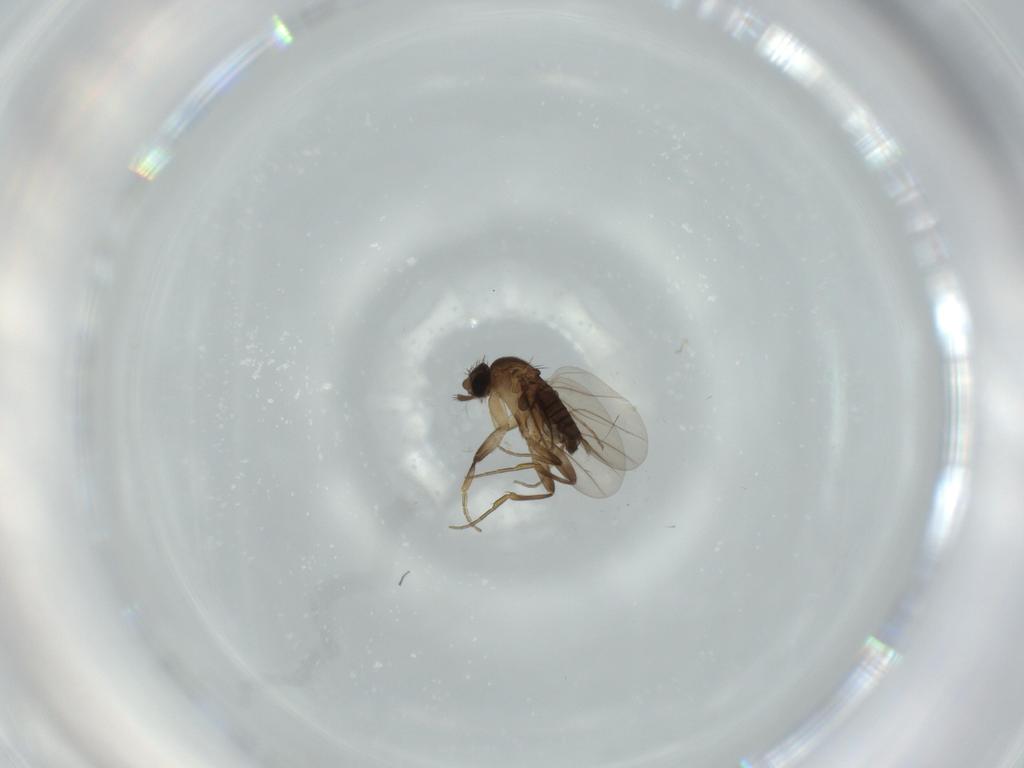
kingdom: Animalia
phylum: Arthropoda
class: Insecta
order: Diptera
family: Phoridae
